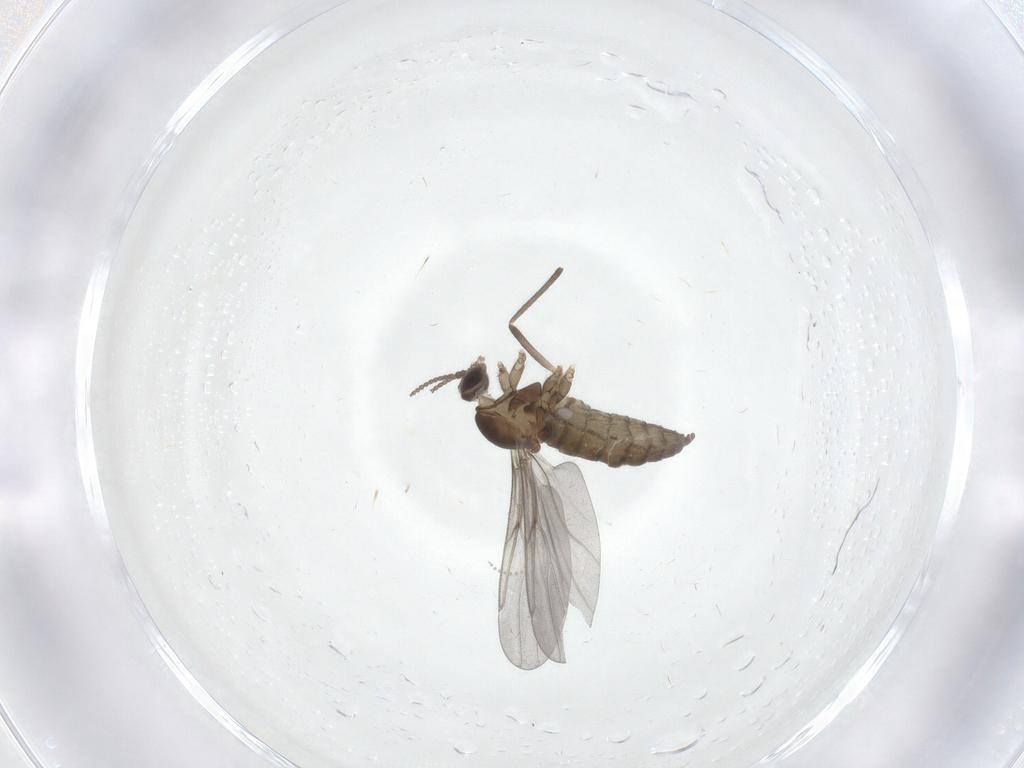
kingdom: Animalia
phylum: Arthropoda
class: Insecta
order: Diptera
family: Cecidomyiidae
